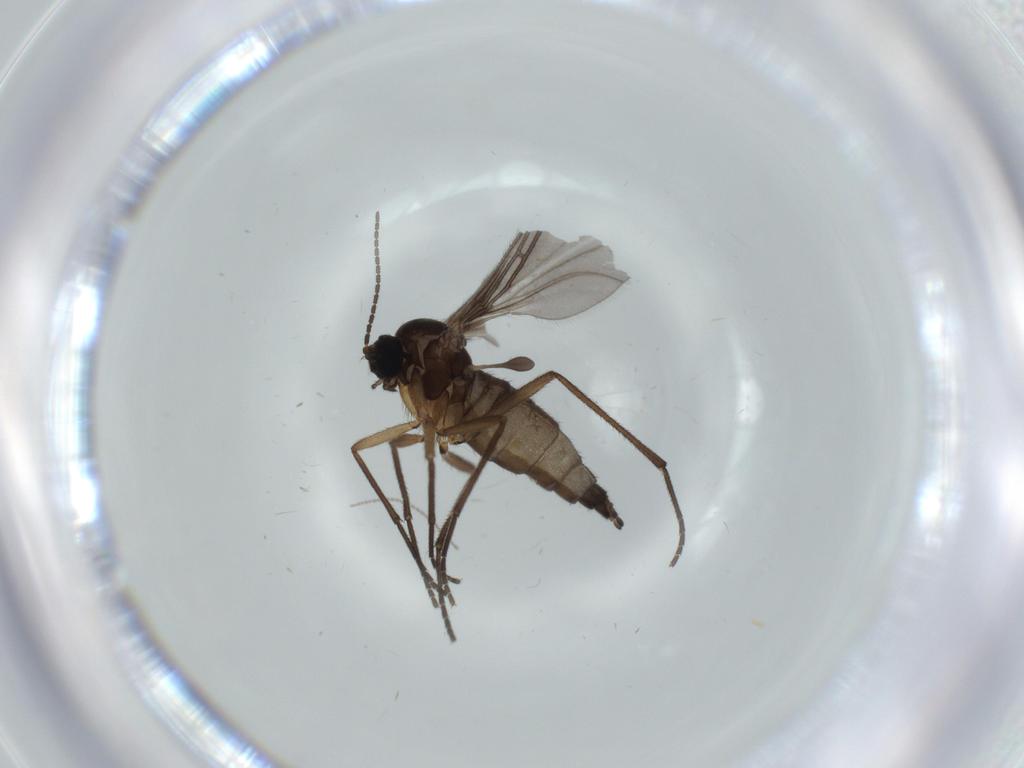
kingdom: Animalia
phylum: Arthropoda
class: Insecta
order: Diptera
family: Sciaridae
